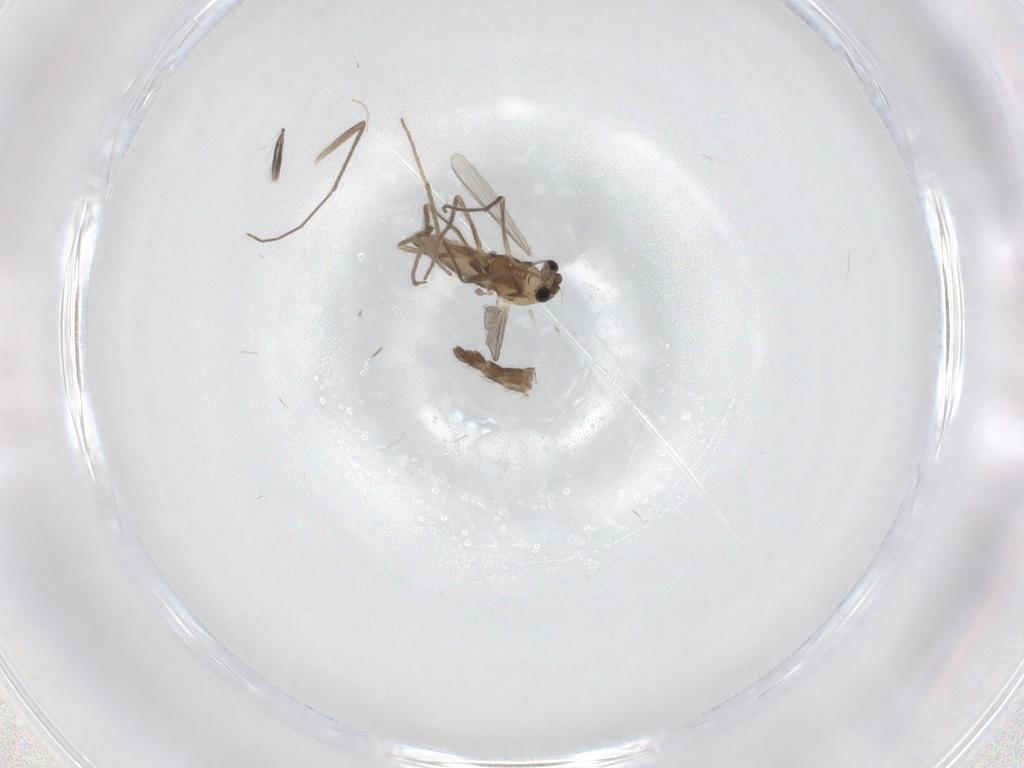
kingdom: Animalia
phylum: Arthropoda
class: Insecta
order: Diptera
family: Chironomidae
